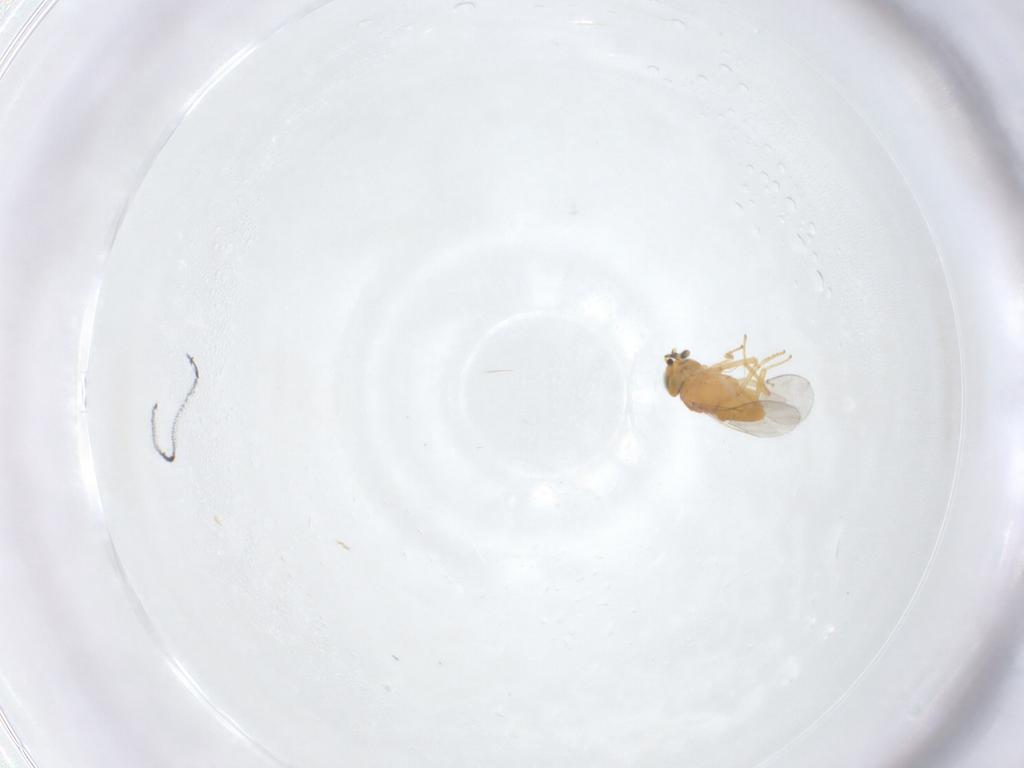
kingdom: Animalia
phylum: Arthropoda
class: Insecta
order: Hymenoptera
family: Encyrtidae
